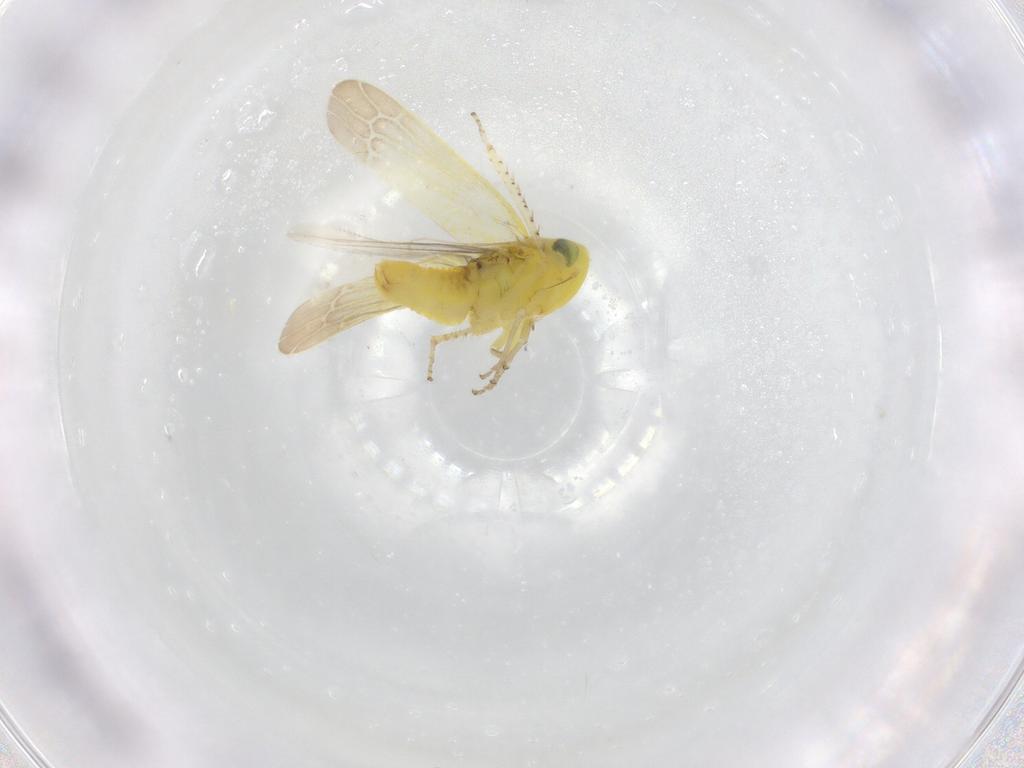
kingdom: Animalia
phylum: Arthropoda
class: Insecta
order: Hemiptera
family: Cicadellidae
